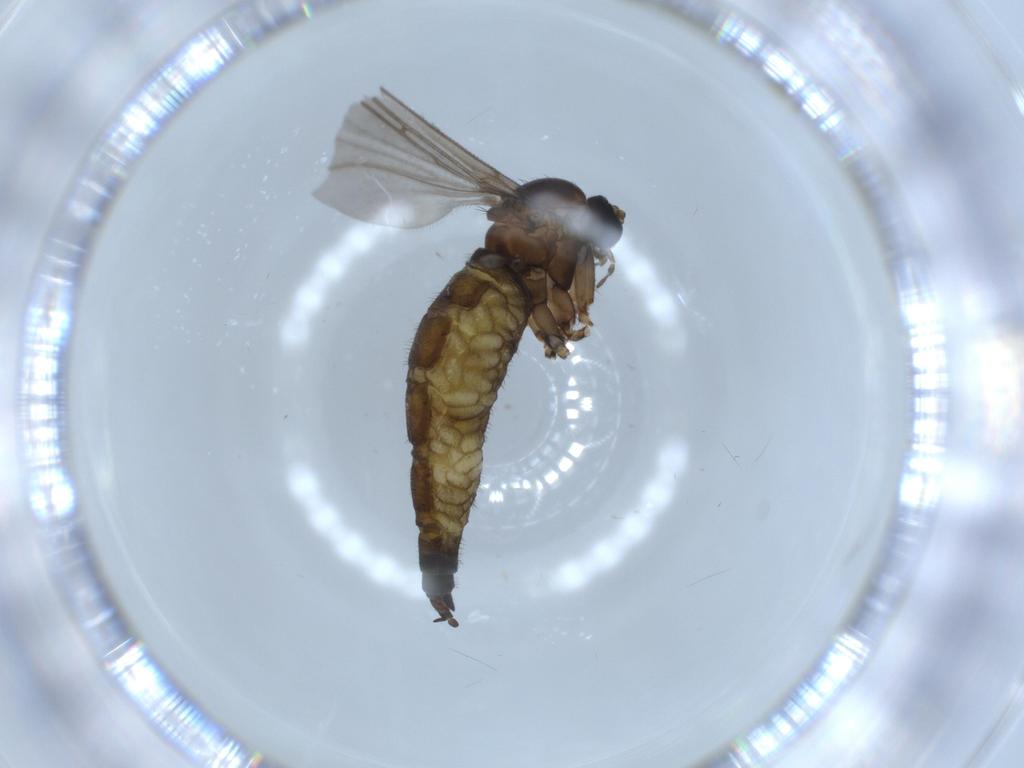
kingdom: Animalia
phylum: Arthropoda
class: Insecta
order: Diptera
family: Sciaridae
